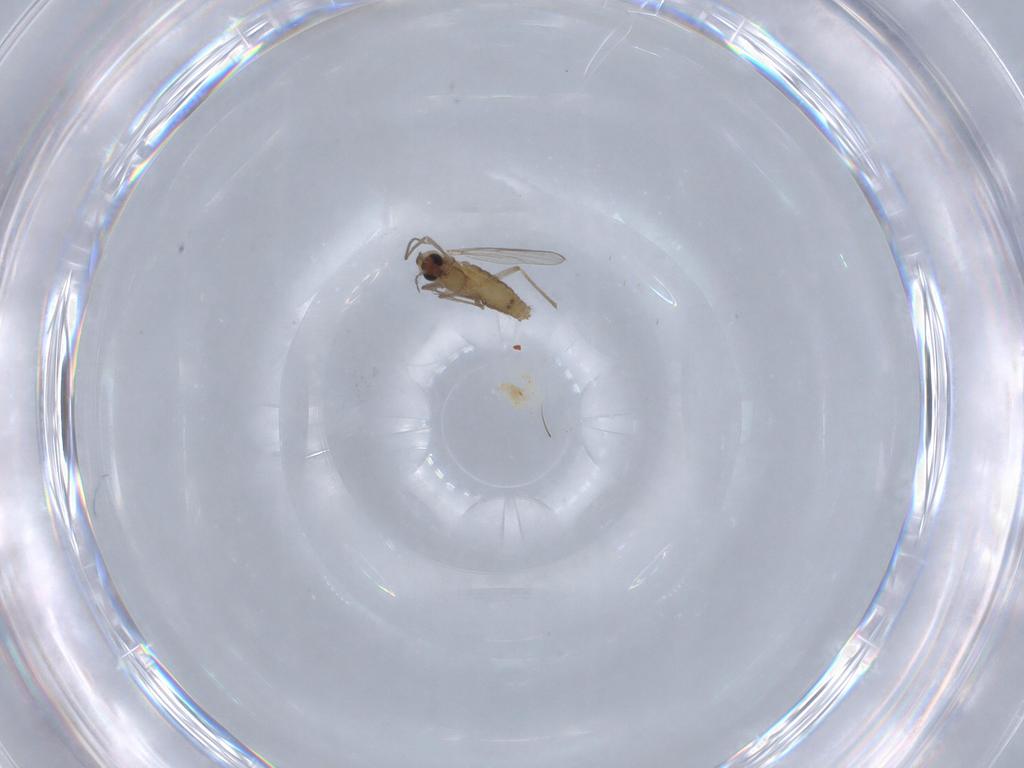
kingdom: Animalia
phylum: Arthropoda
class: Insecta
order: Diptera
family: Chironomidae
